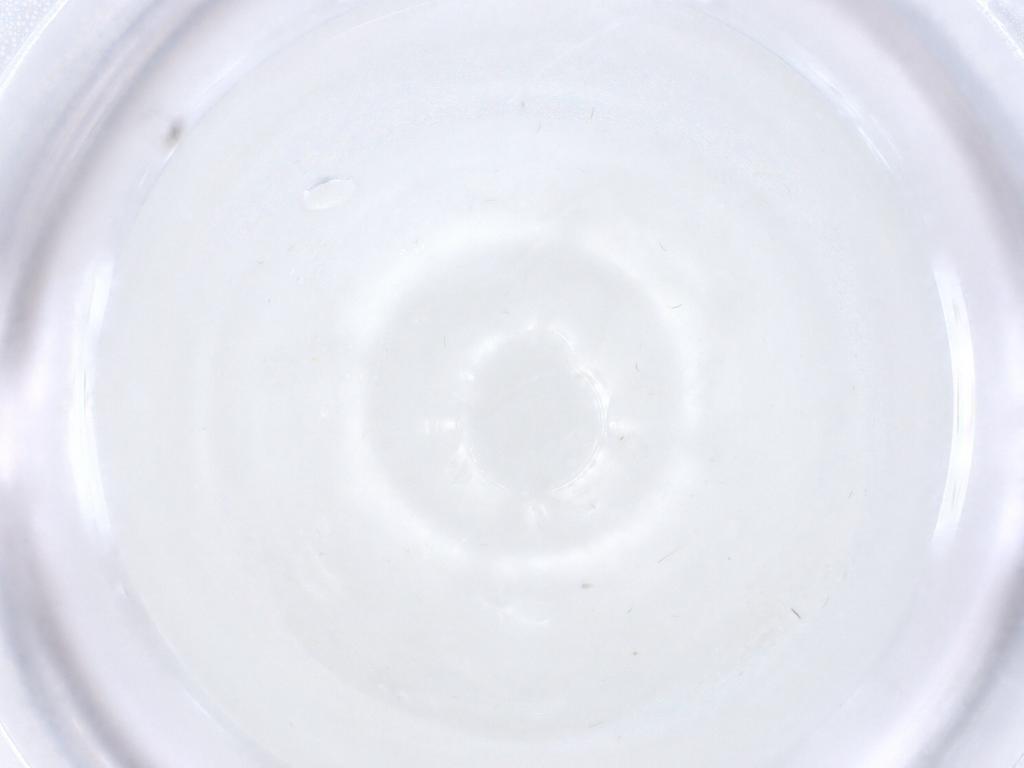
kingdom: Animalia
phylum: Arthropoda
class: Insecta
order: Hymenoptera
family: Mymaridae
